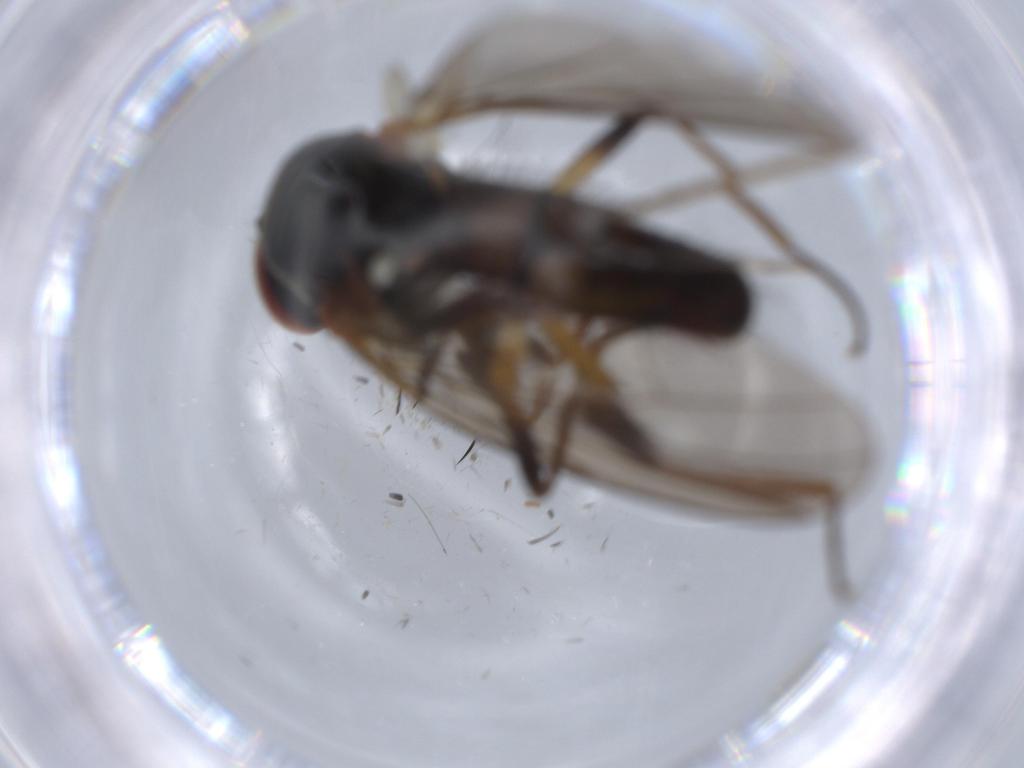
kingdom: Animalia
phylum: Arthropoda
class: Insecta
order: Diptera
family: Anthomyiidae
